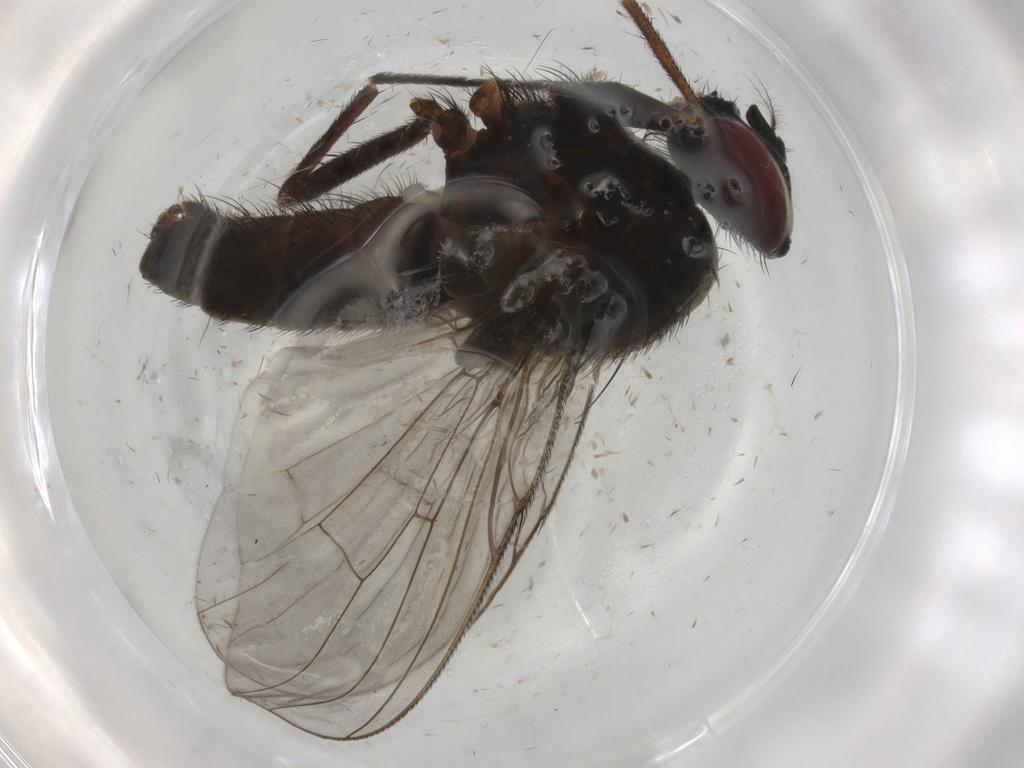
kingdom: Animalia
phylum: Arthropoda
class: Insecta
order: Diptera
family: Muscidae
